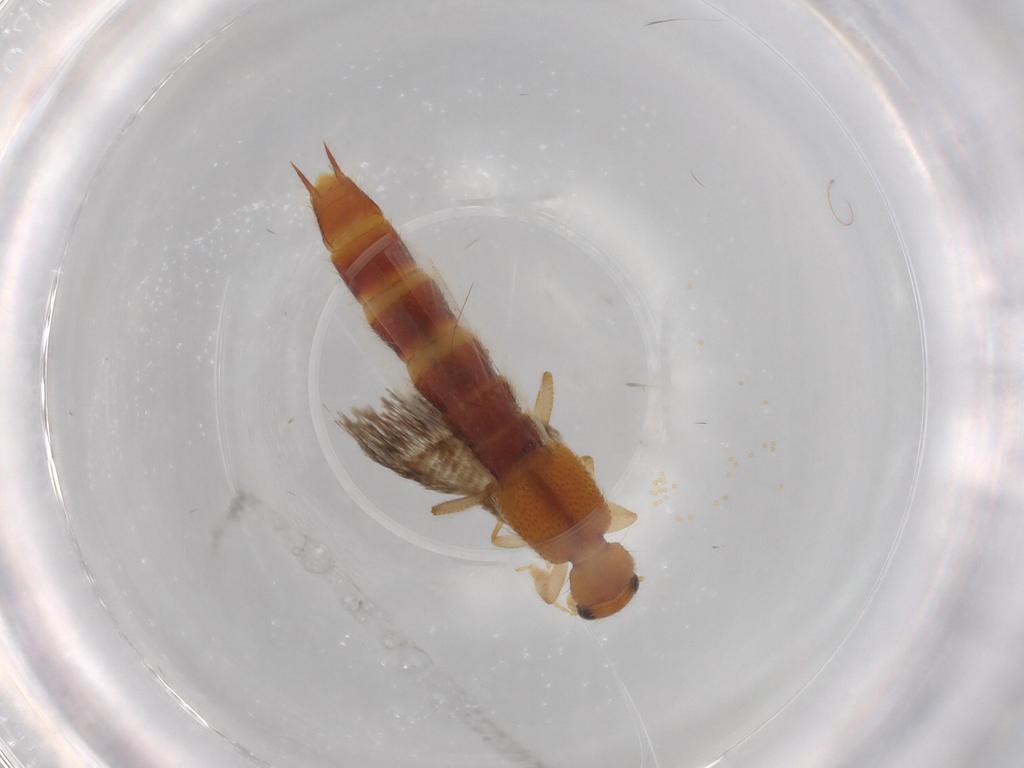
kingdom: Animalia
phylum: Arthropoda
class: Insecta
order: Coleoptera
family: Staphylinidae
